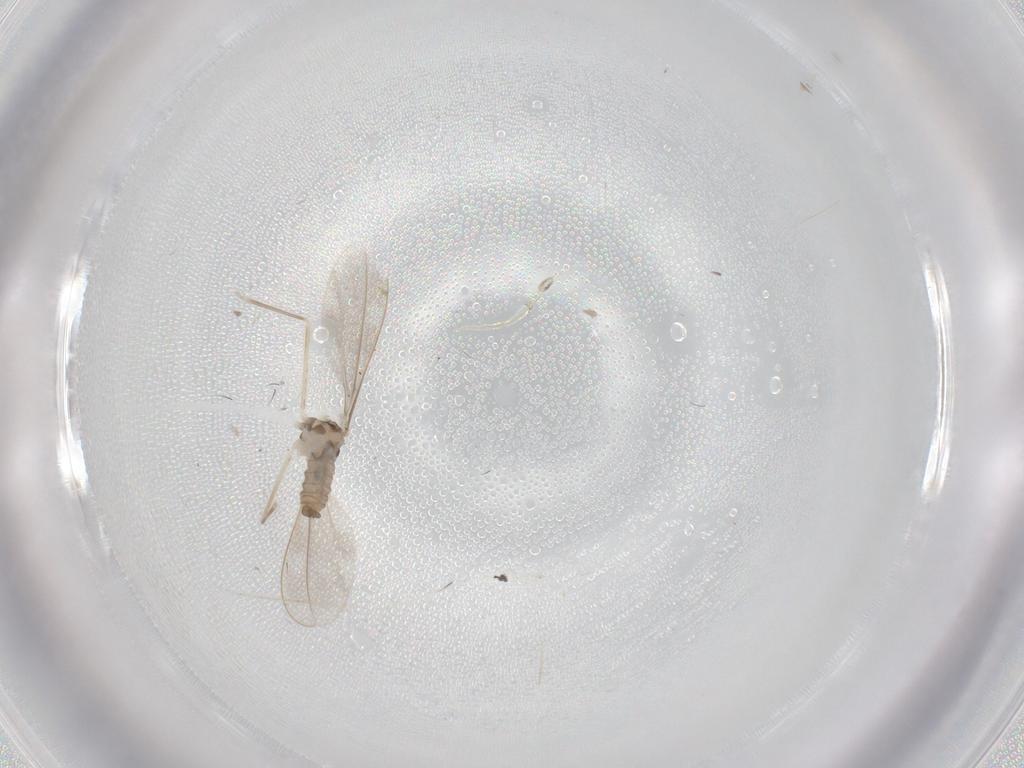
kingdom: Animalia
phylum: Arthropoda
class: Insecta
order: Diptera
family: Cecidomyiidae
